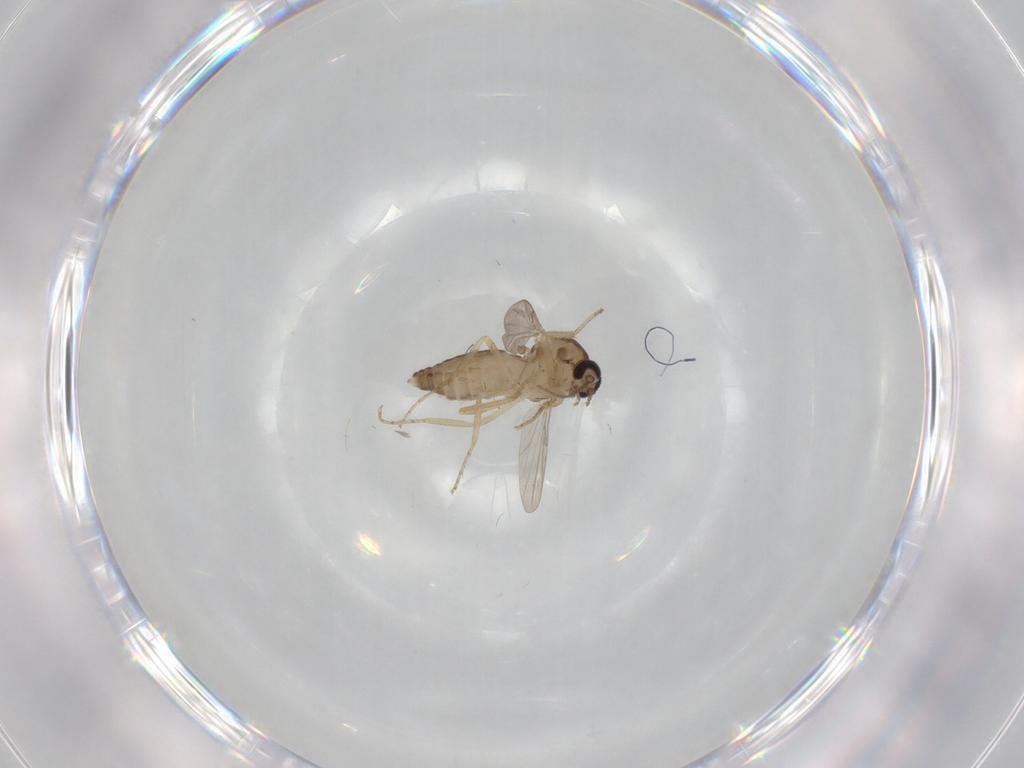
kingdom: Animalia
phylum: Arthropoda
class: Insecta
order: Diptera
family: Ceratopogonidae
